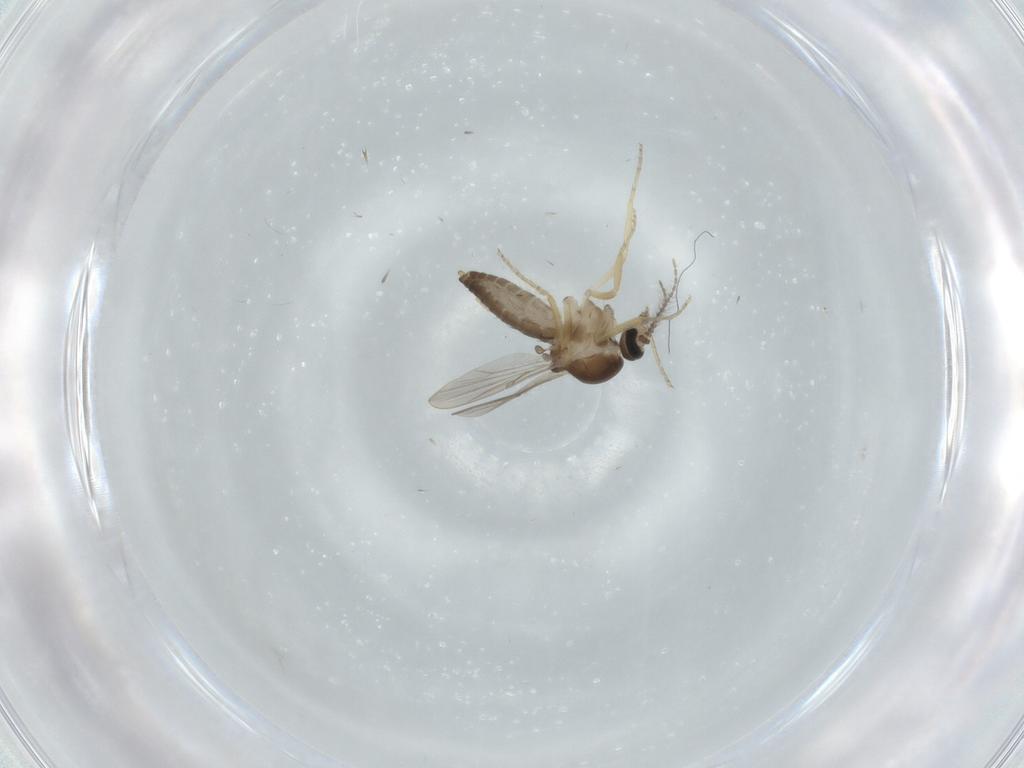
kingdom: Animalia
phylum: Arthropoda
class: Insecta
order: Diptera
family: Ceratopogonidae
